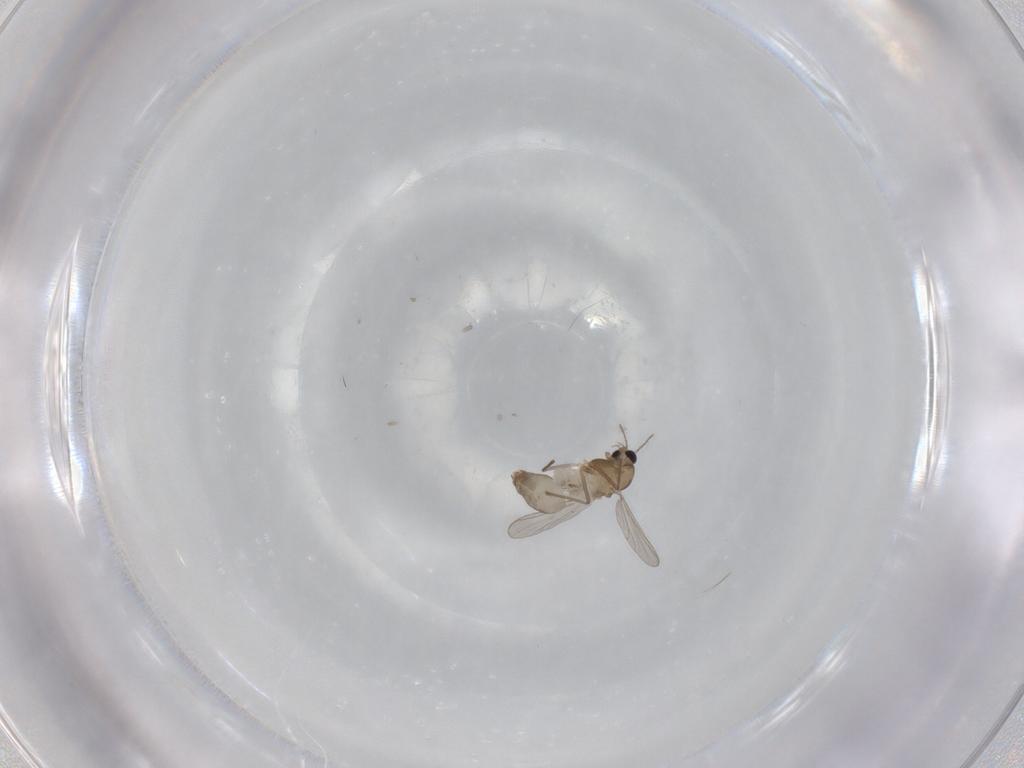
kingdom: Animalia
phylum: Arthropoda
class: Insecta
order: Diptera
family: Chironomidae
